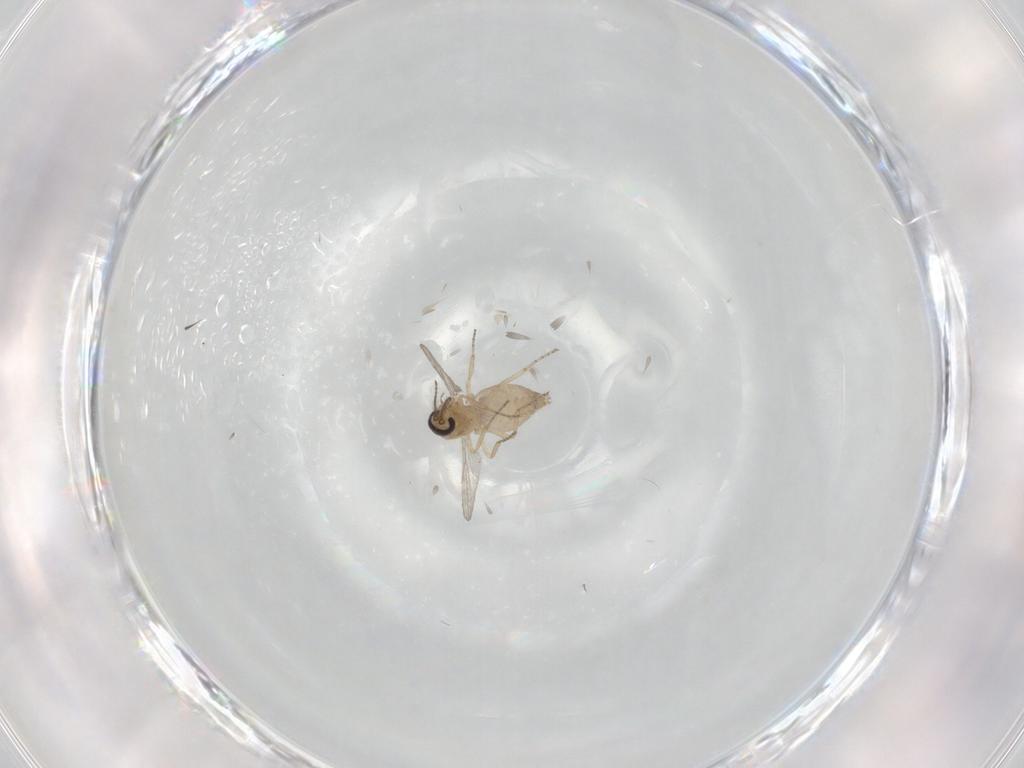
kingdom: Animalia
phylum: Arthropoda
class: Insecta
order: Diptera
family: Ceratopogonidae
